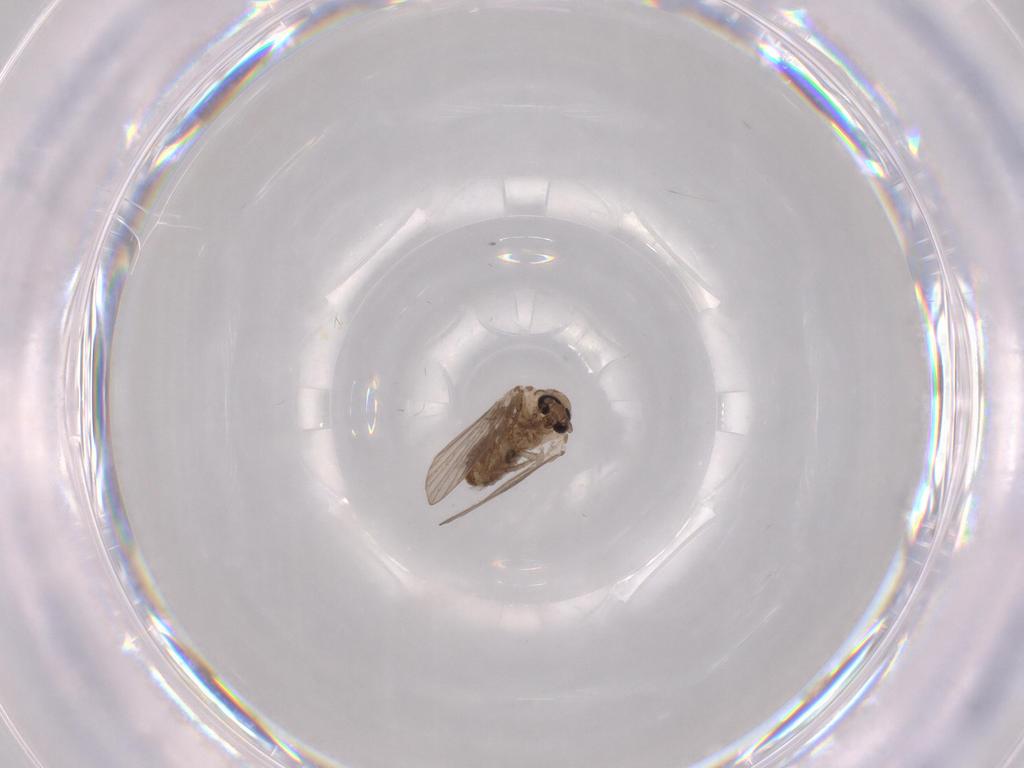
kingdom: Animalia
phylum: Arthropoda
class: Insecta
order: Diptera
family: Psychodidae
